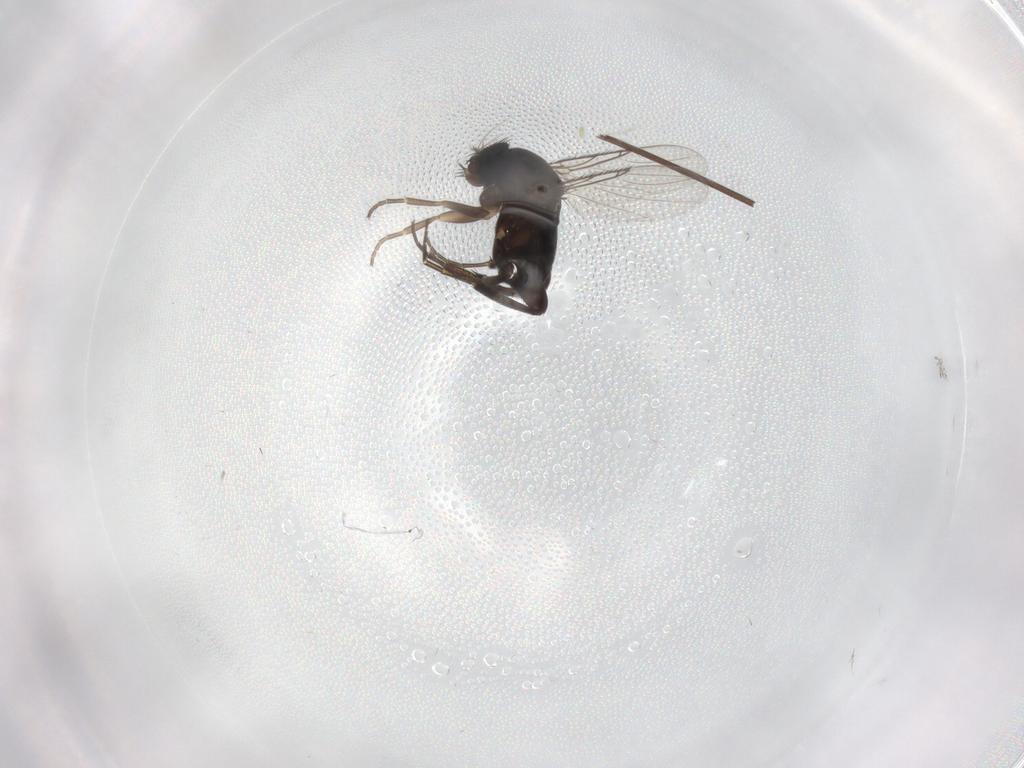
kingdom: Animalia
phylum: Arthropoda
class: Insecta
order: Diptera
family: Phoridae
